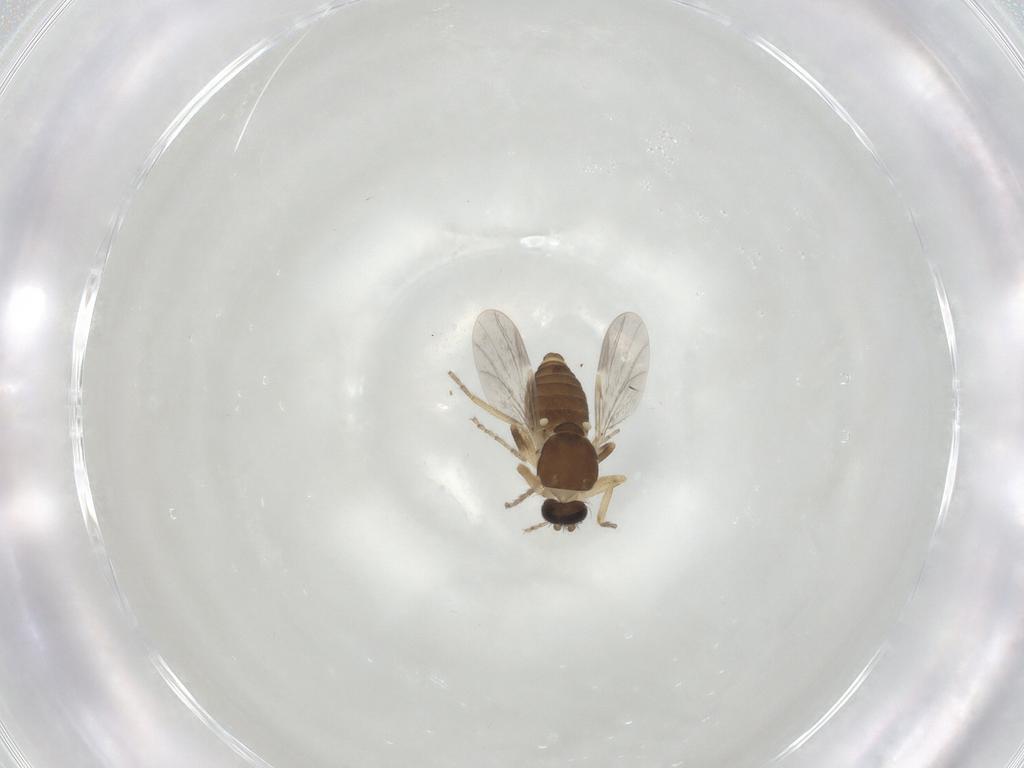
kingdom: Animalia
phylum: Arthropoda
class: Insecta
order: Diptera
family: Ceratopogonidae
